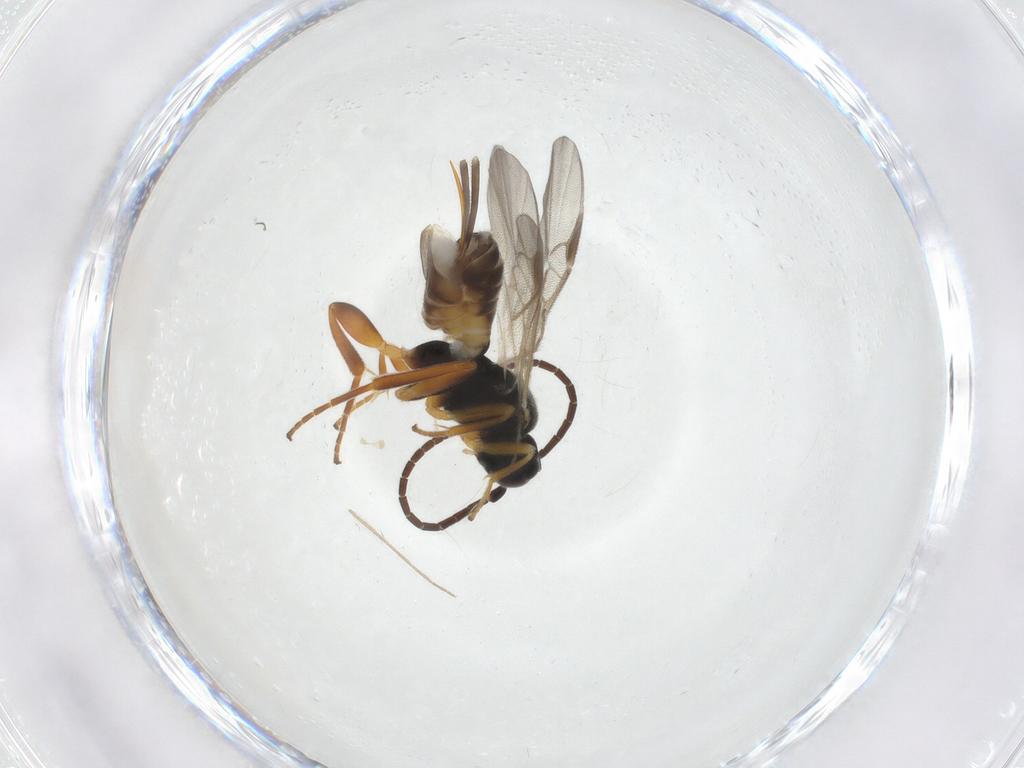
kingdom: Animalia
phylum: Arthropoda
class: Insecta
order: Hymenoptera
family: Braconidae
